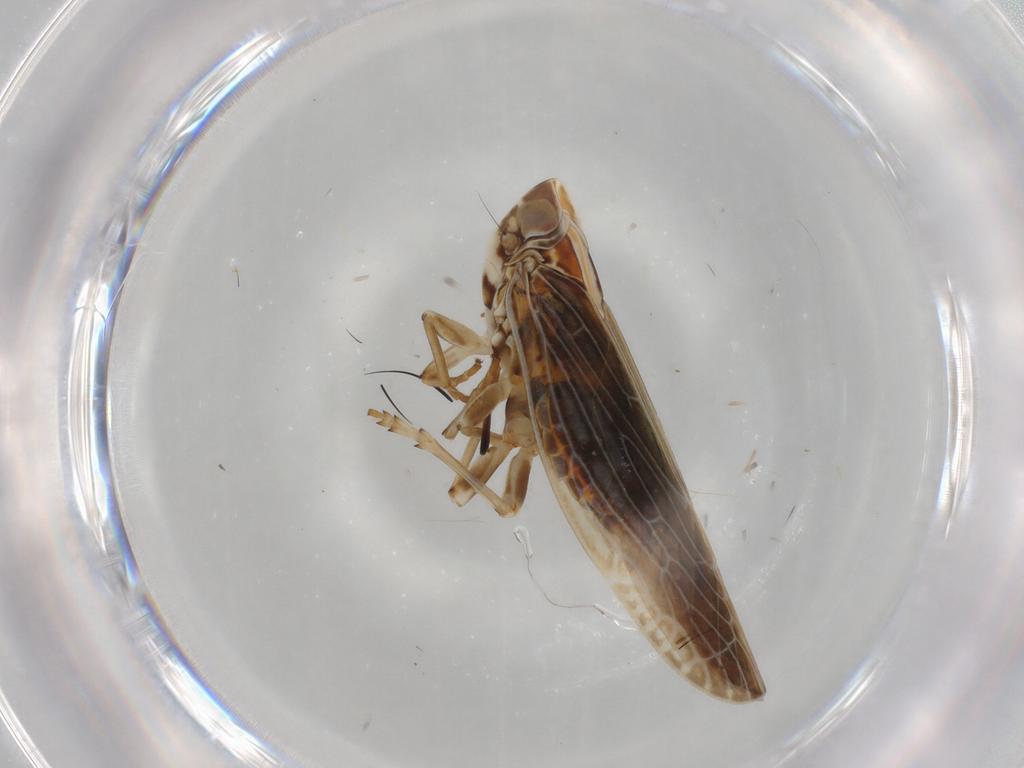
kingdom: Animalia
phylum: Arthropoda
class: Insecta
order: Hemiptera
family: Achilidae
